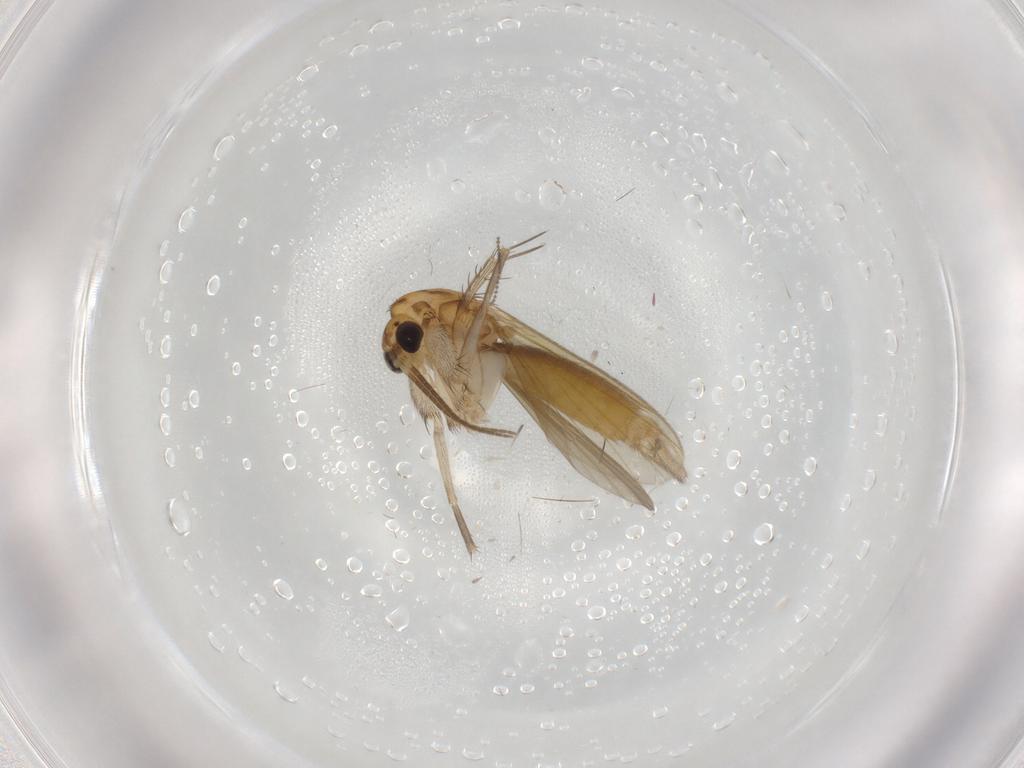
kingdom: Animalia
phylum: Arthropoda
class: Insecta
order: Diptera
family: Mycetophilidae
